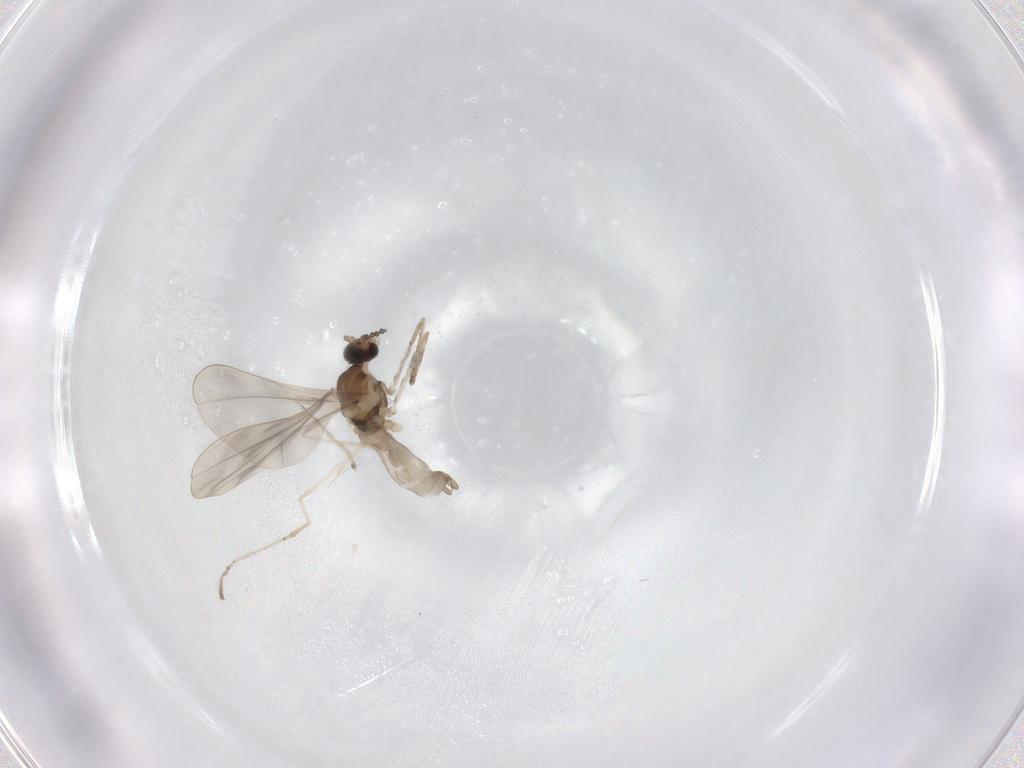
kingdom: Animalia
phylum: Arthropoda
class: Insecta
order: Diptera
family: Cecidomyiidae
